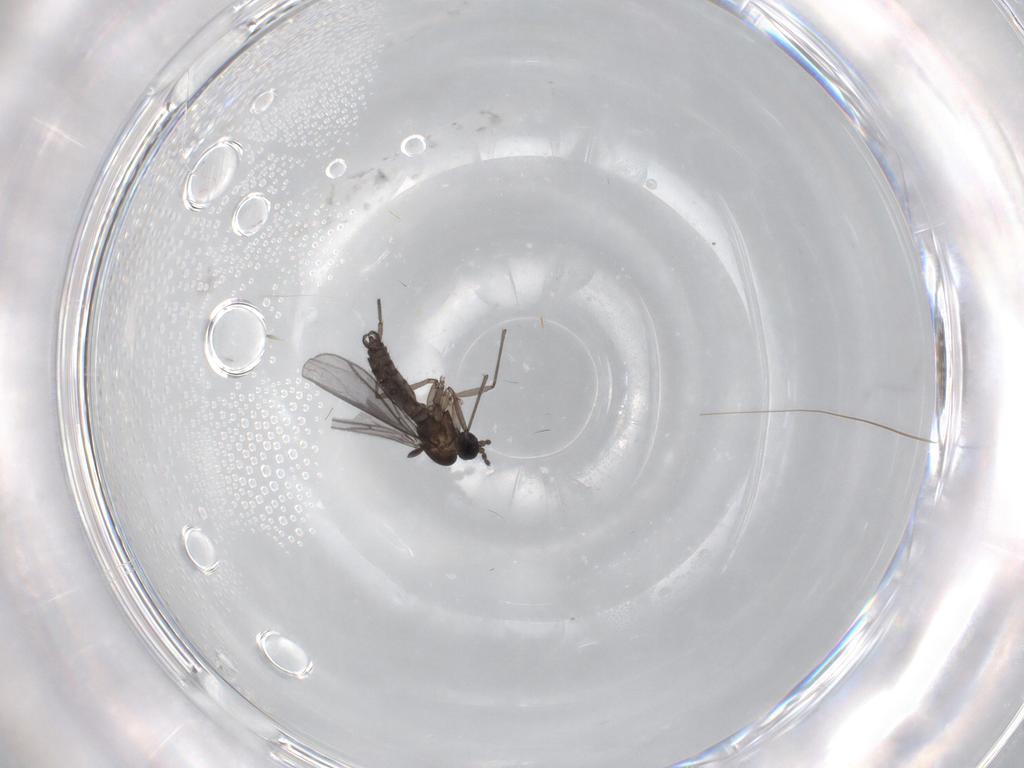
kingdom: Animalia
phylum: Arthropoda
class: Insecta
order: Diptera
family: Sciaridae
